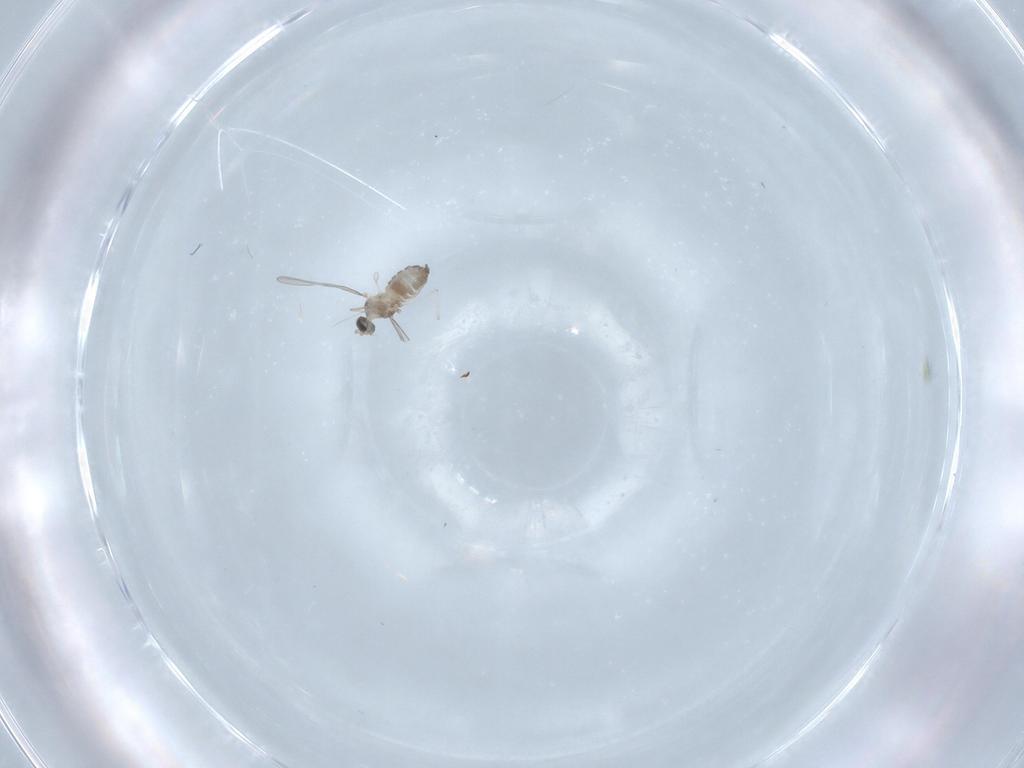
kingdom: Animalia
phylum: Arthropoda
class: Insecta
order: Diptera
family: Cecidomyiidae
